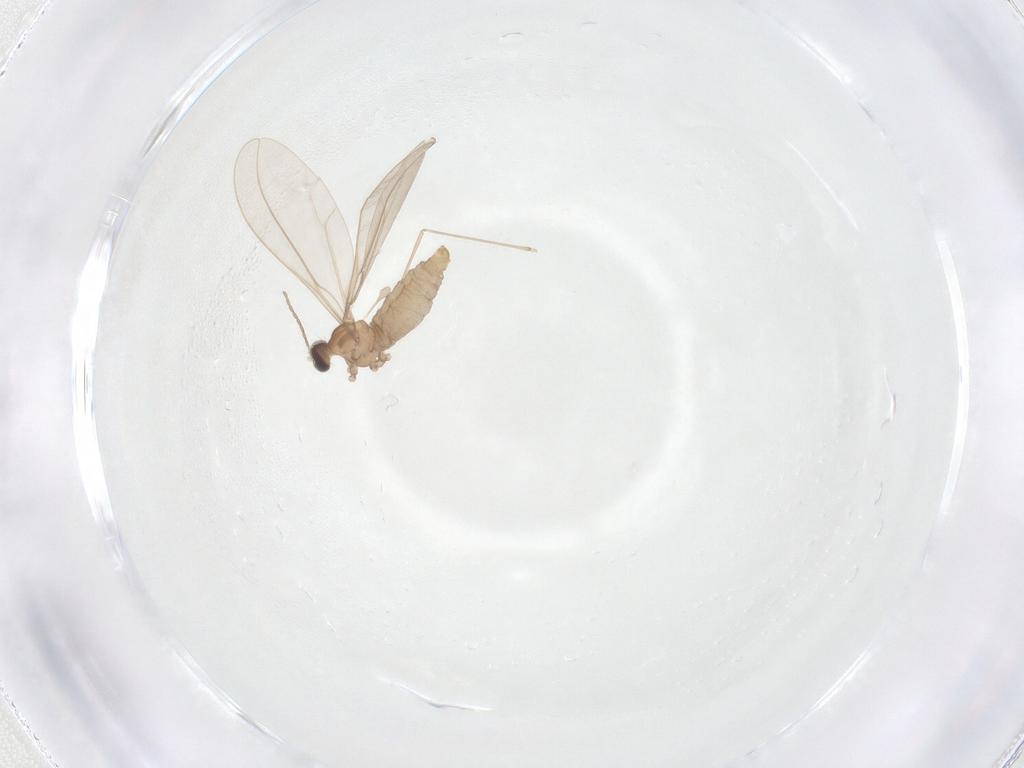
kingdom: Animalia
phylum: Arthropoda
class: Insecta
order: Diptera
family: Cecidomyiidae
